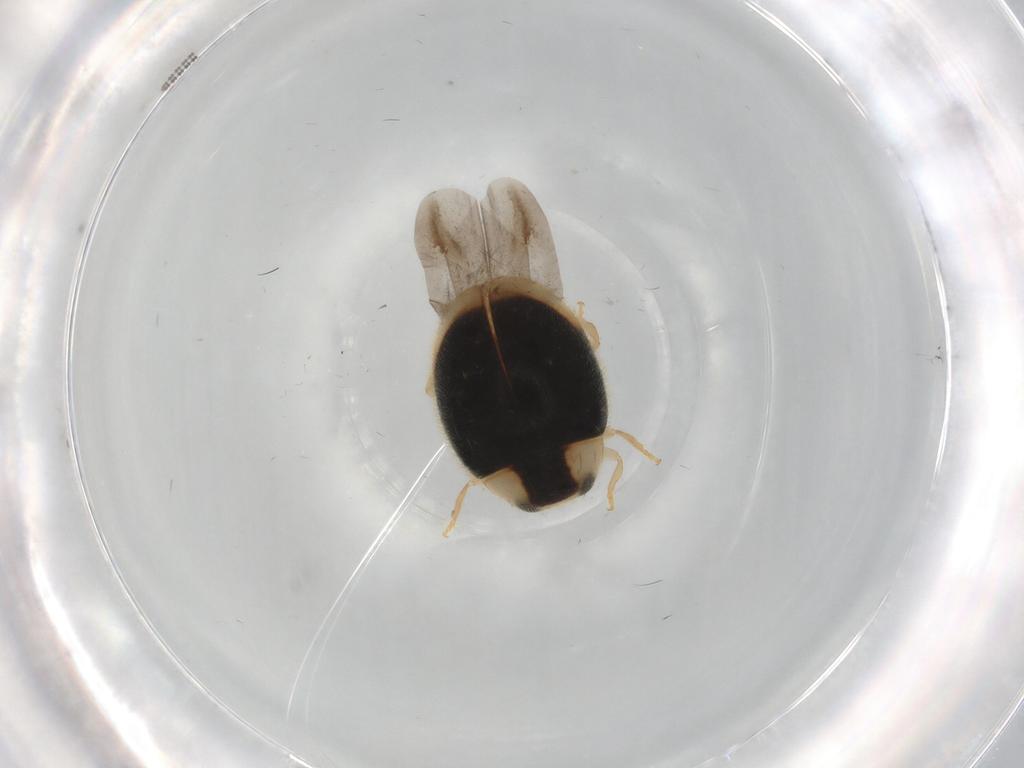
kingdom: Animalia
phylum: Arthropoda
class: Insecta
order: Coleoptera
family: Coccinellidae
